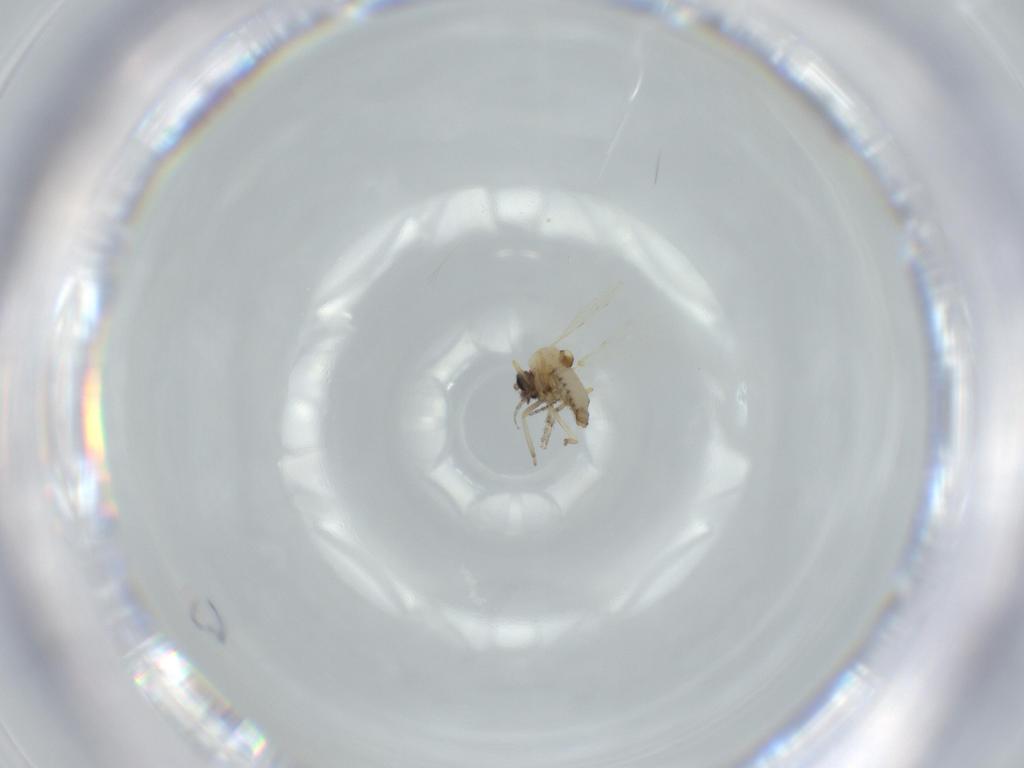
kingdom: Animalia
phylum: Arthropoda
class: Insecta
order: Diptera
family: Ceratopogonidae
